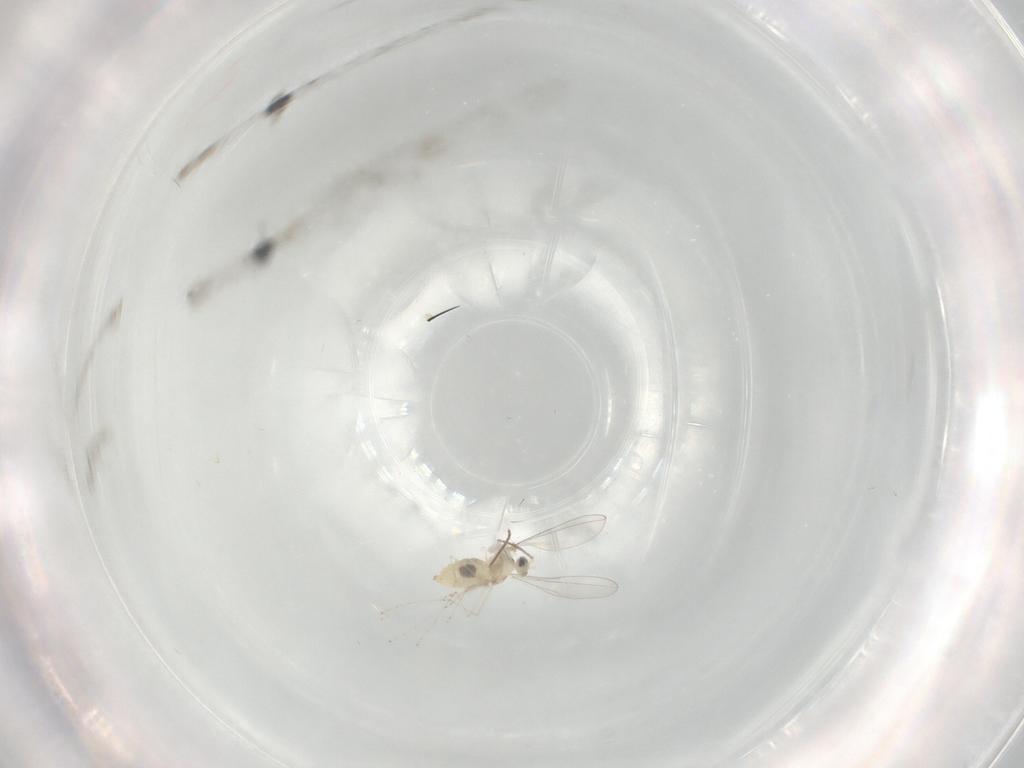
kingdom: Animalia
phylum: Arthropoda
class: Insecta
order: Diptera
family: Cecidomyiidae
